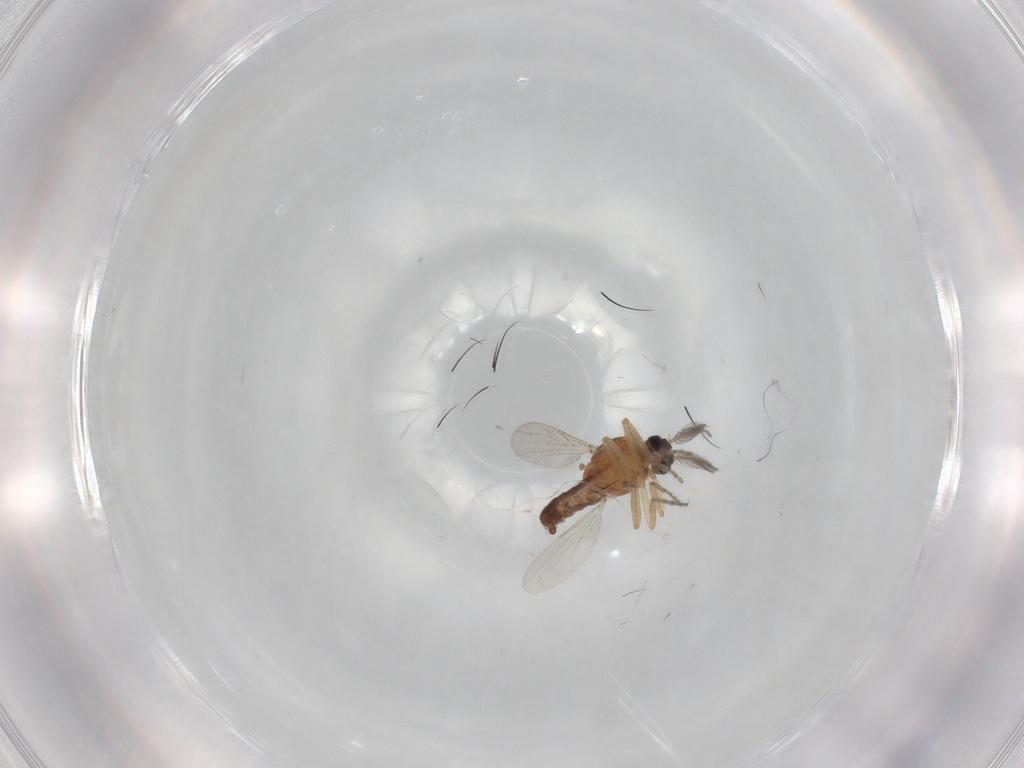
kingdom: Animalia
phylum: Arthropoda
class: Insecta
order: Diptera
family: Ceratopogonidae
